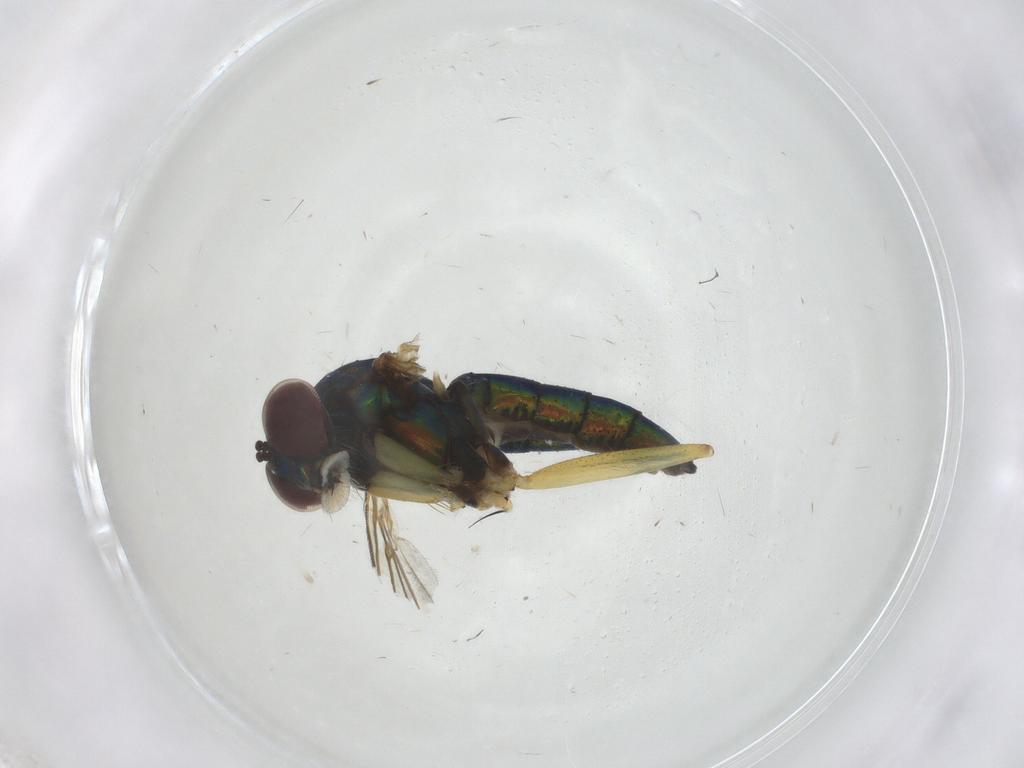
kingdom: Animalia
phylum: Arthropoda
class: Insecta
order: Diptera
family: Dolichopodidae
